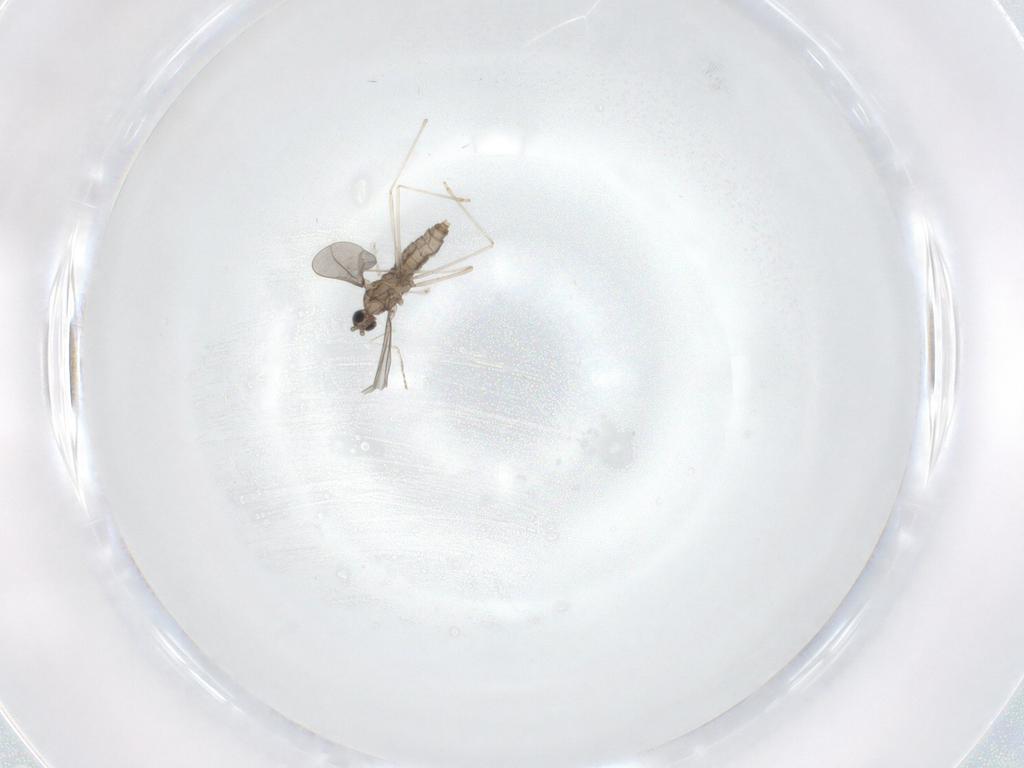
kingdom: Animalia
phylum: Arthropoda
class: Insecta
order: Diptera
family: Cecidomyiidae
